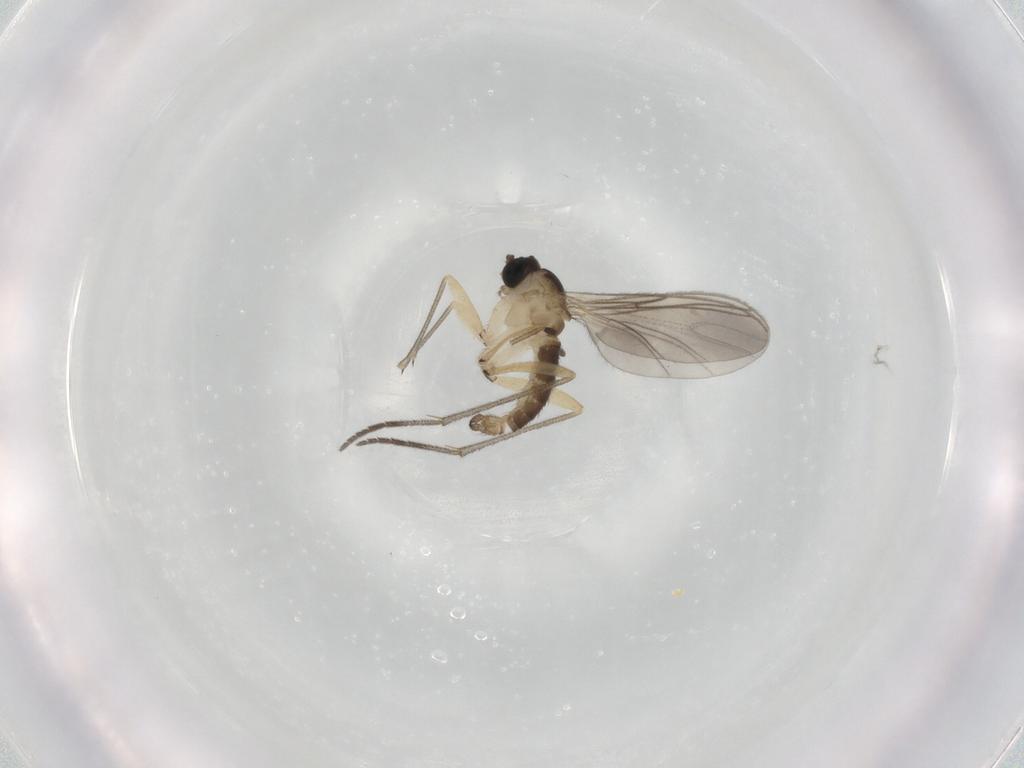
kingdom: Animalia
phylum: Arthropoda
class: Insecta
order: Diptera
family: Sciaridae
